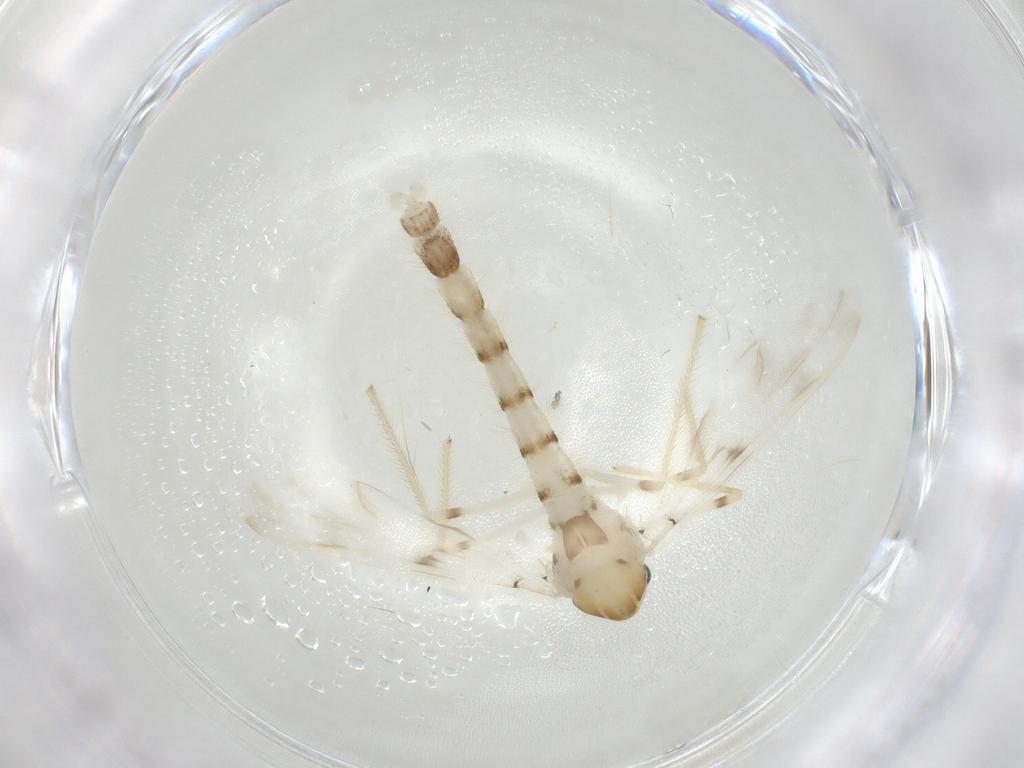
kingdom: Animalia
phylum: Arthropoda
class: Insecta
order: Diptera
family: Chironomidae
